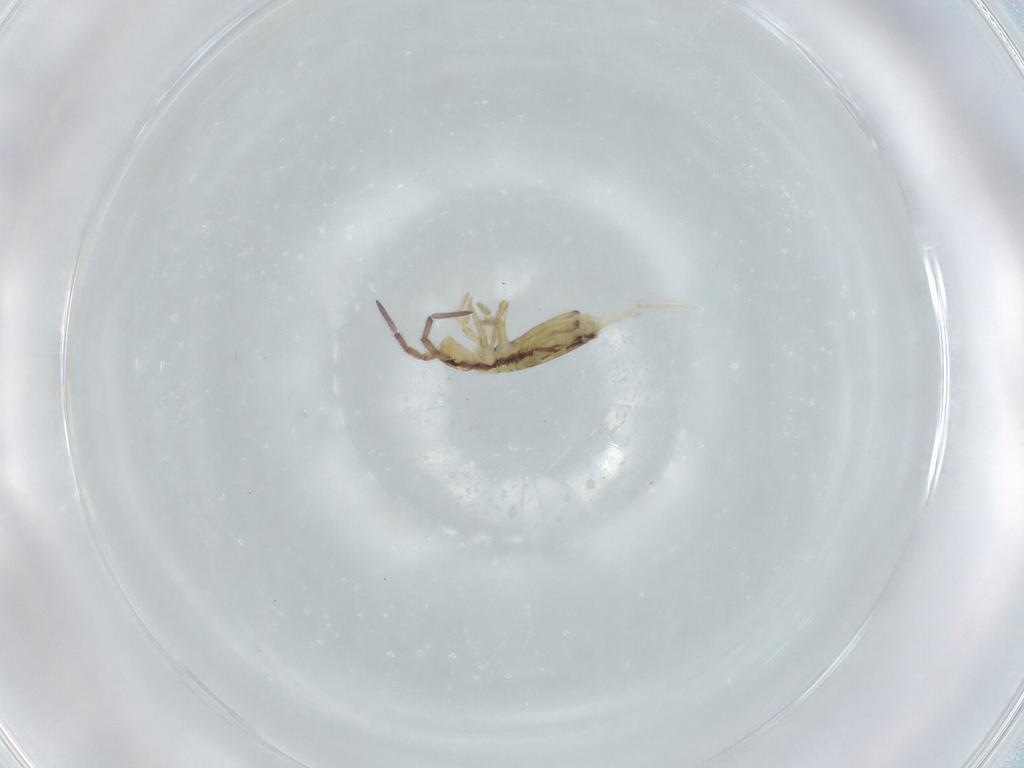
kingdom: Animalia
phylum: Arthropoda
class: Collembola
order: Entomobryomorpha
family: Entomobryidae
